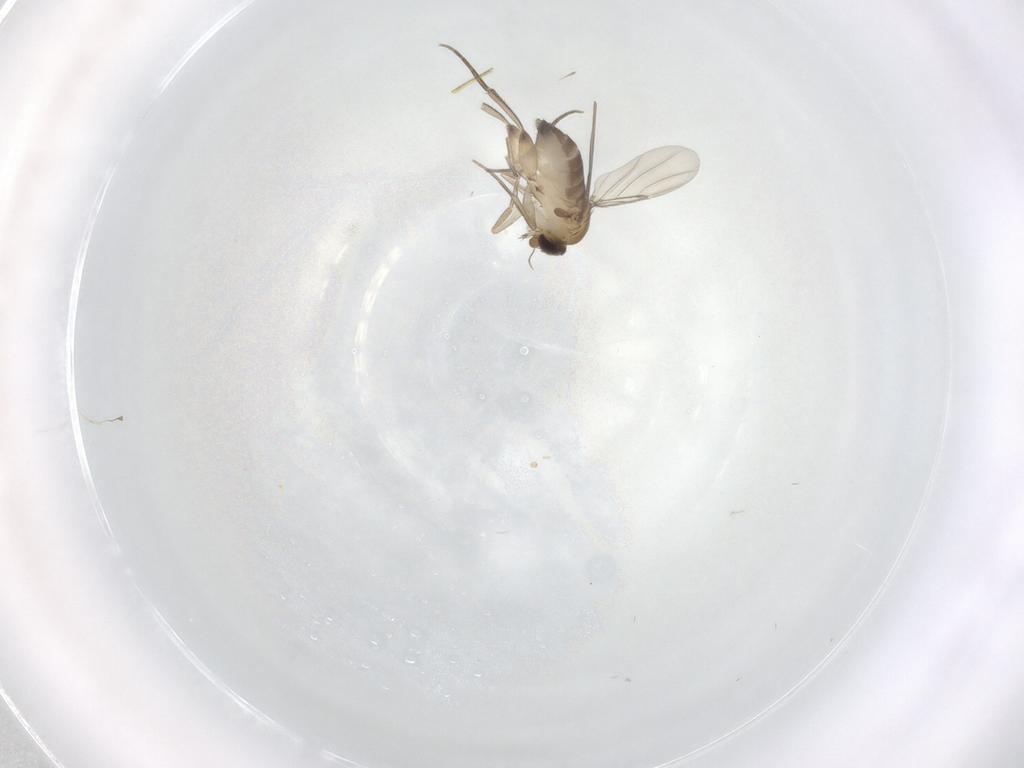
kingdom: Animalia
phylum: Arthropoda
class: Insecta
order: Diptera
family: Phoridae
